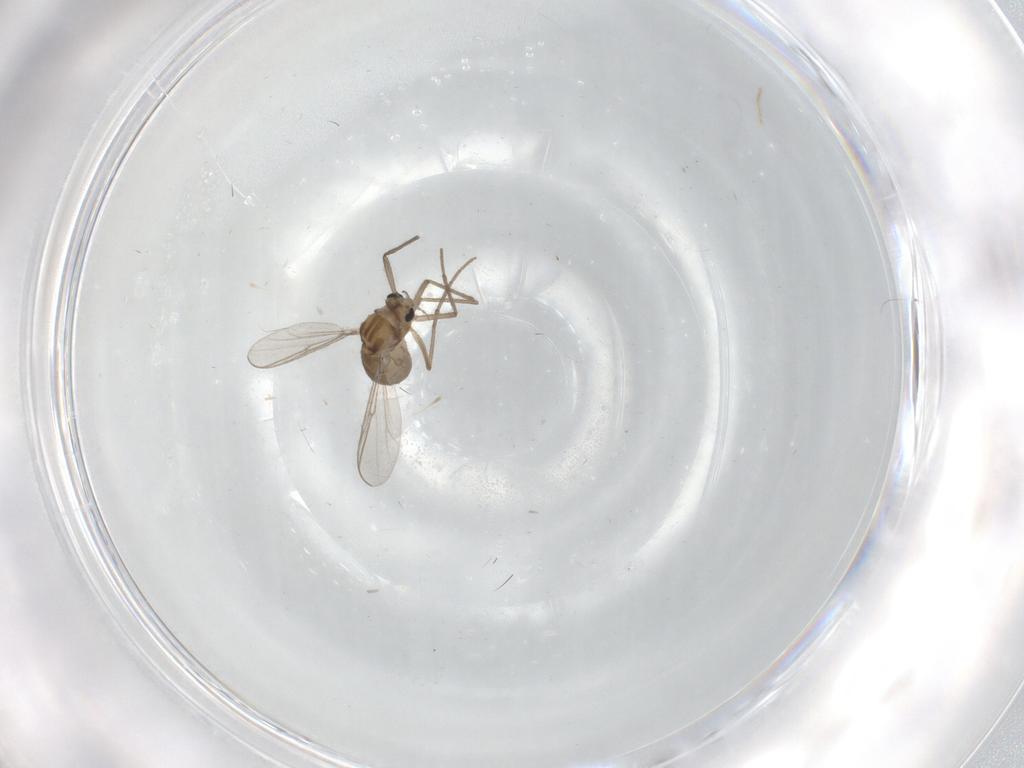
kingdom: Animalia
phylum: Arthropoda
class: Insecta
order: Diptera
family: Chironomidae
